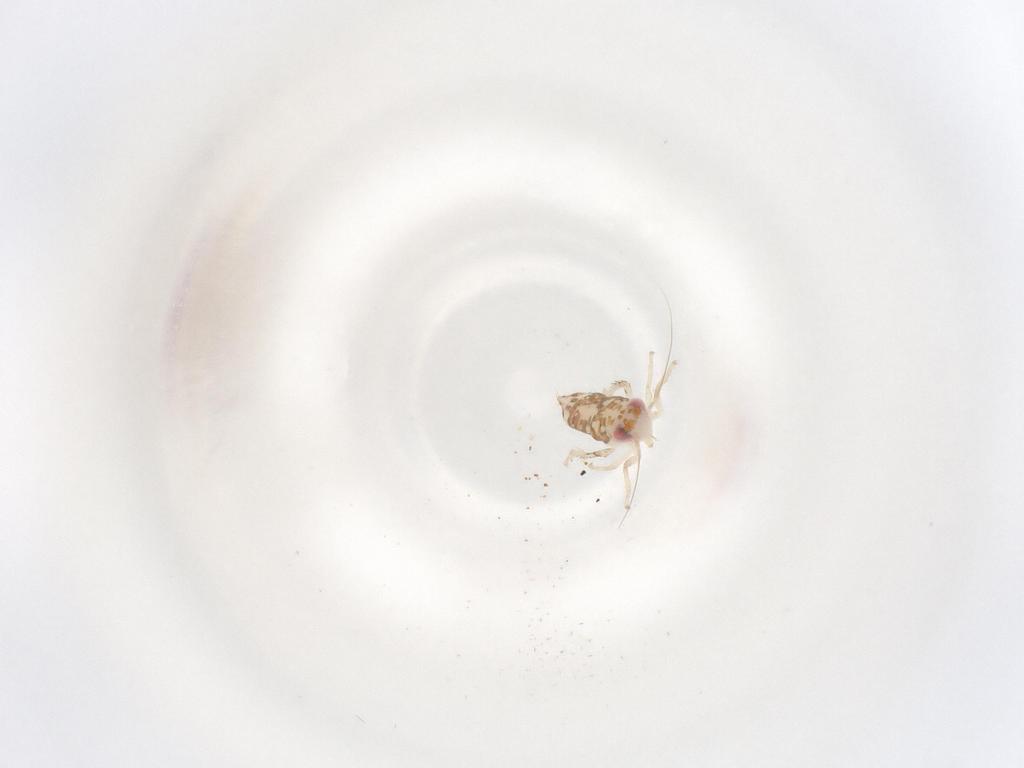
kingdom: Animalia
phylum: Arthropoda
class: Insecta
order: Hemiptera
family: Cicadellidae
